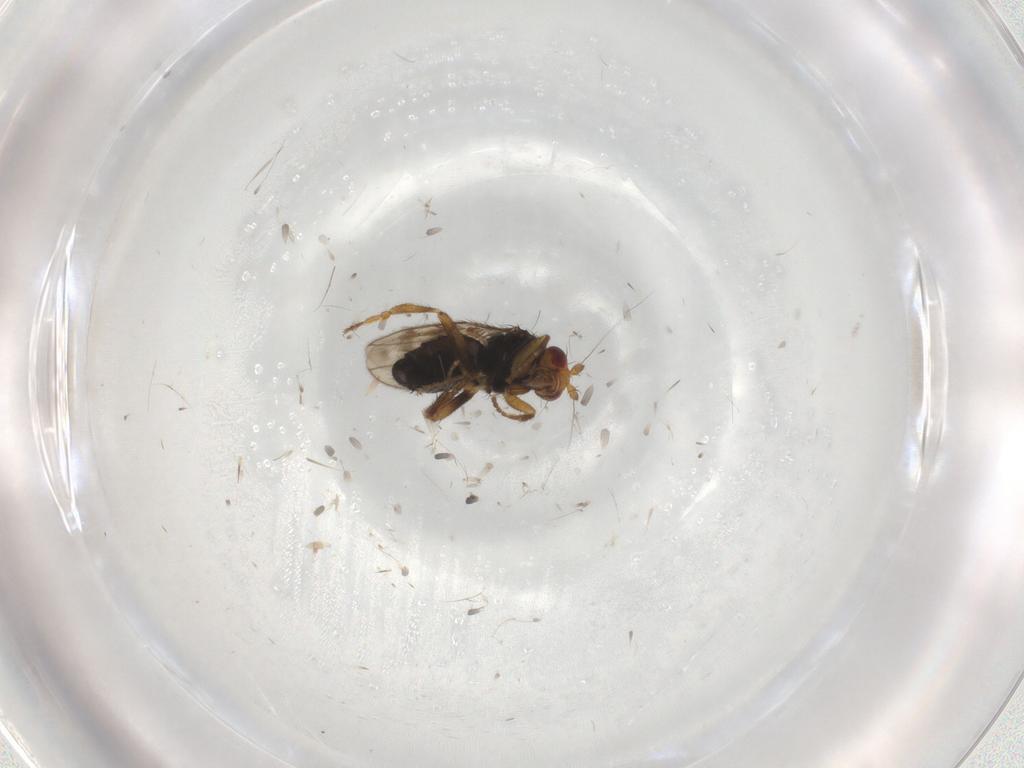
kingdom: Animalia
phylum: Arthropoda
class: Insecta
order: Diptera
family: Sphaeroceridae
